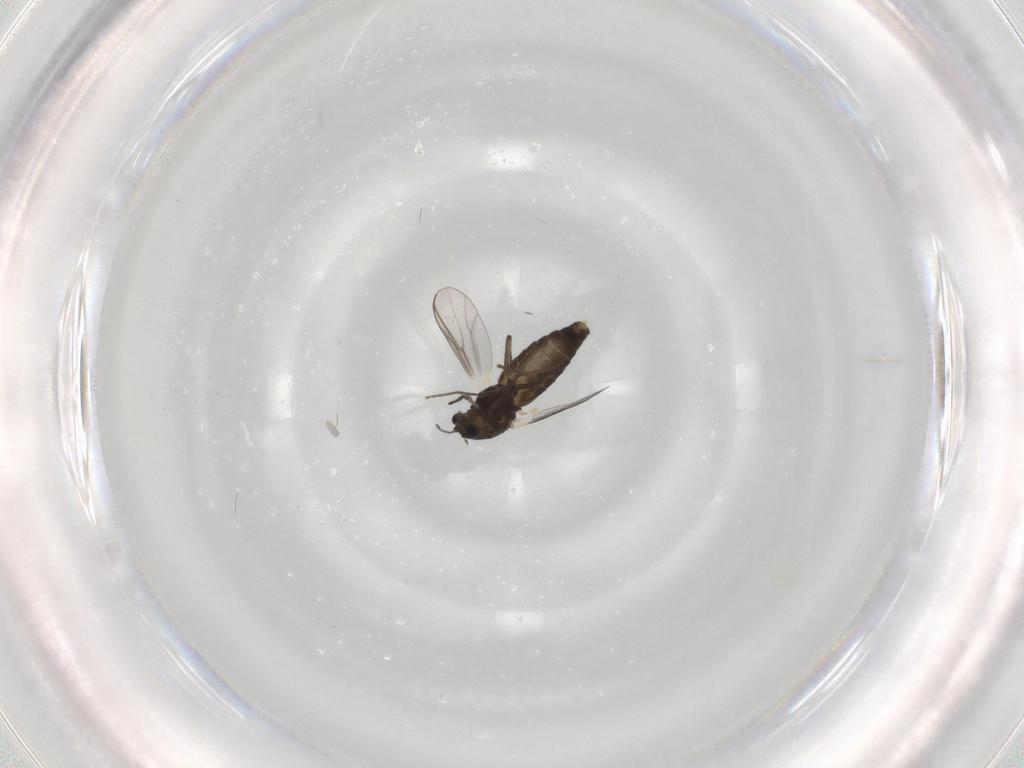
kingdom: Animalia
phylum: Arthropoda
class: Insecta
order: Diptera
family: Chironomidae
